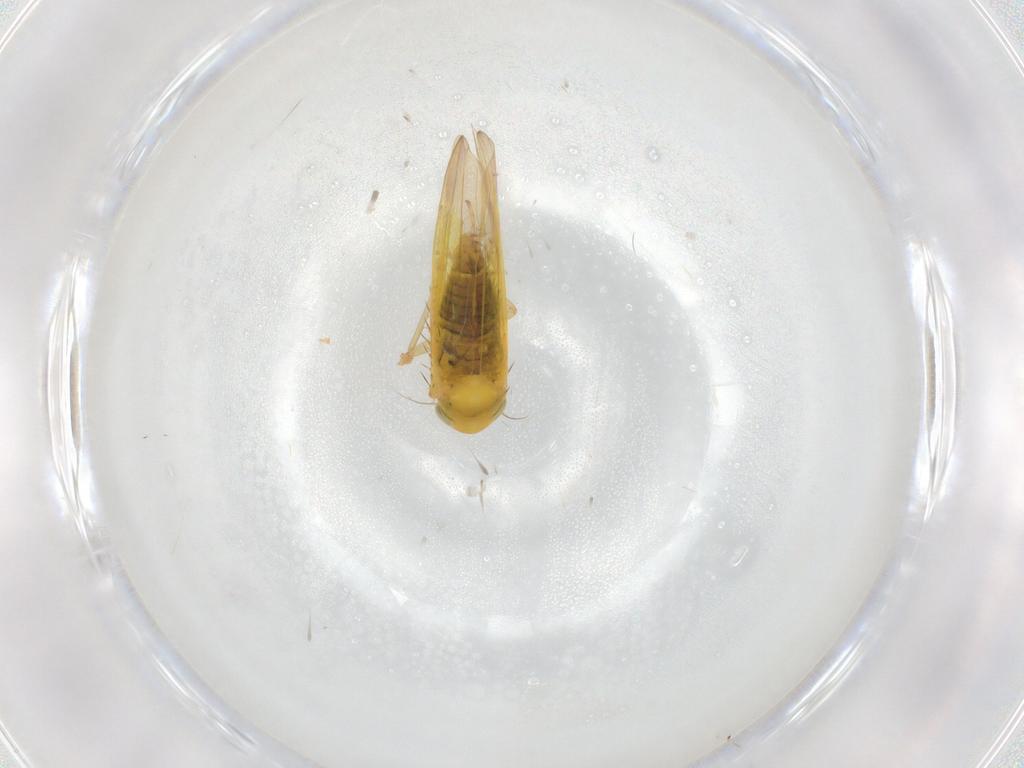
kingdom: Animalia
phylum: Arthropoda
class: Insecta
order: Hemiptera
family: Cicadellidae
